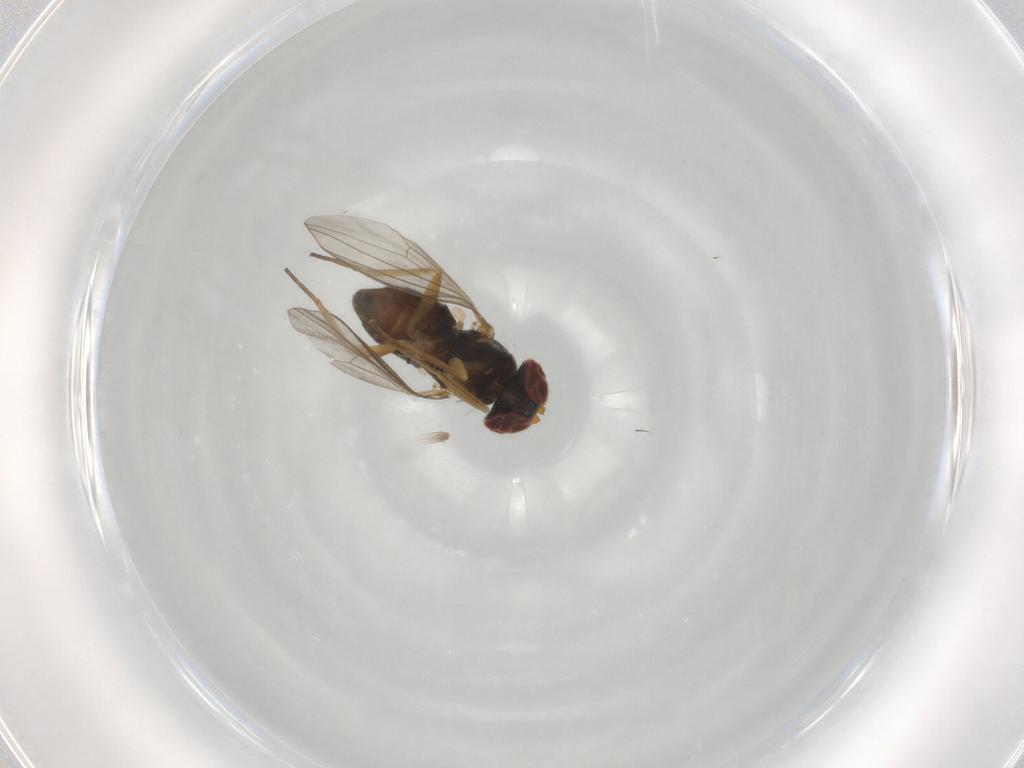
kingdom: Animalia
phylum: Arthropoda
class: Insecta
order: Diptera
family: Dolichopodidae
